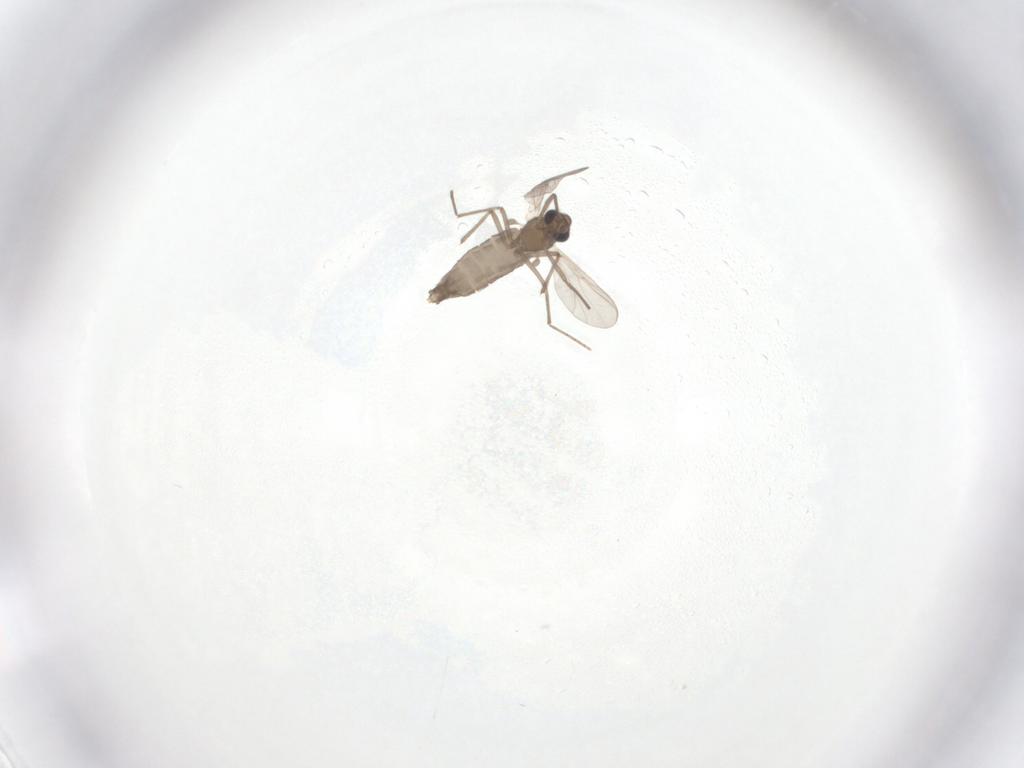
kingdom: Animalia
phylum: Arthropoda
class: Insecta
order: Diptera
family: Chironomidae
